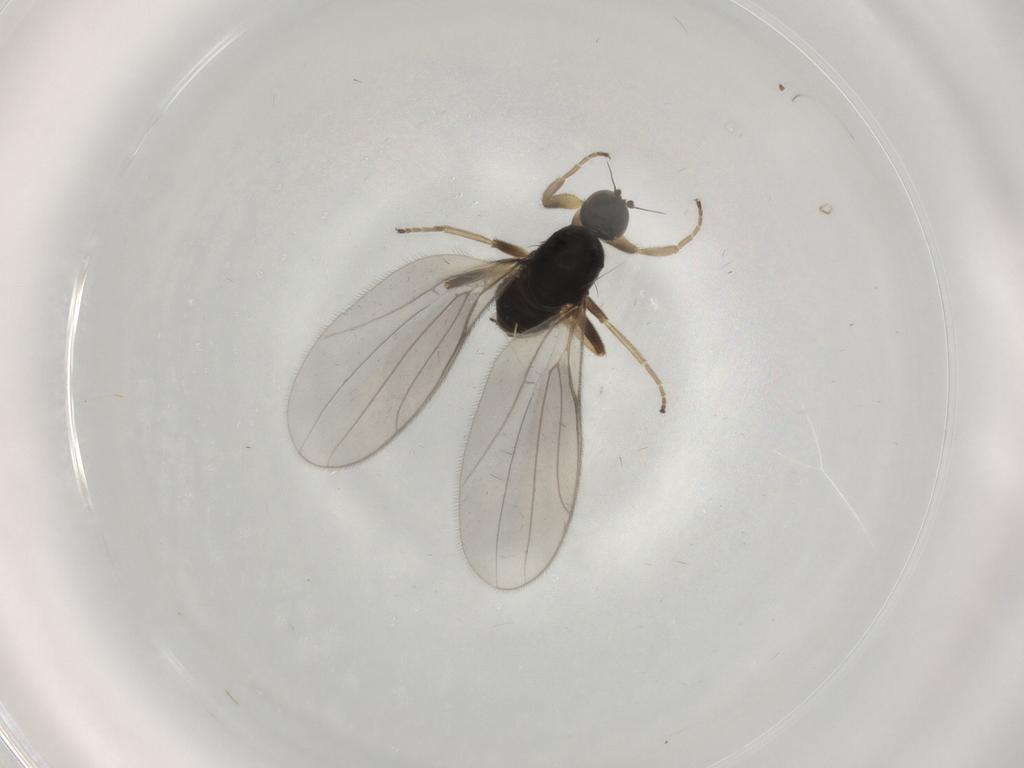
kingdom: Animalia
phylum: Arthropoda
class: Insecta
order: Diptera
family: Hybotidae
